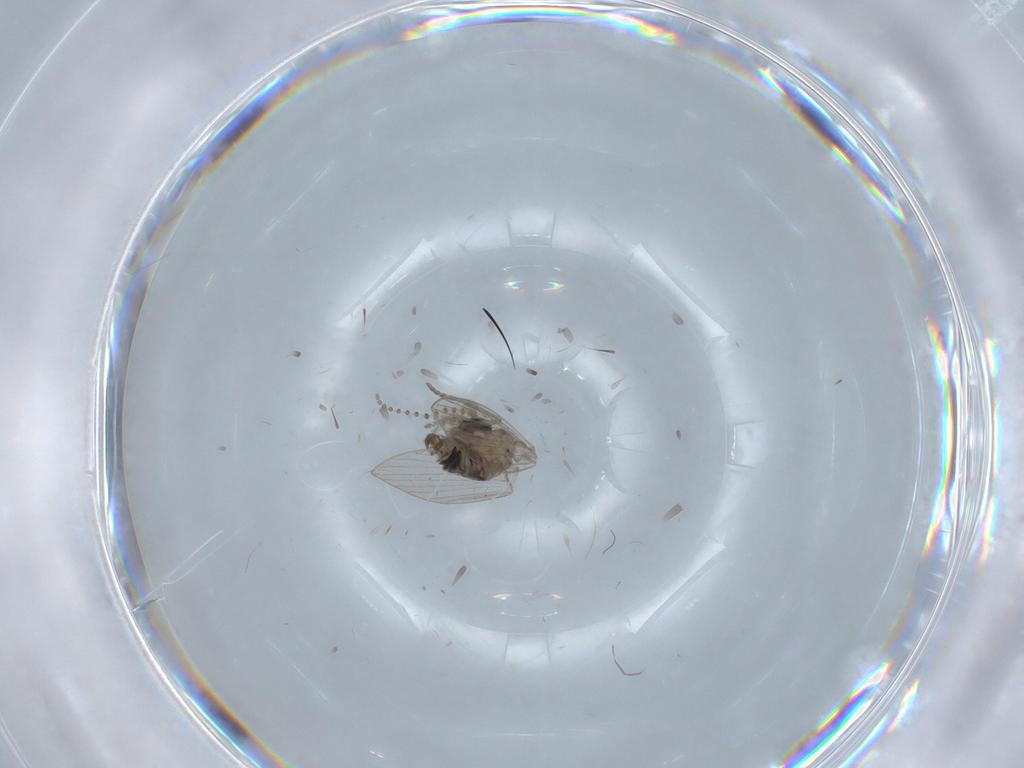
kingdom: Animalia
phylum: Arthropoda
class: Insecta
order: Diptera
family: Psychodidae
